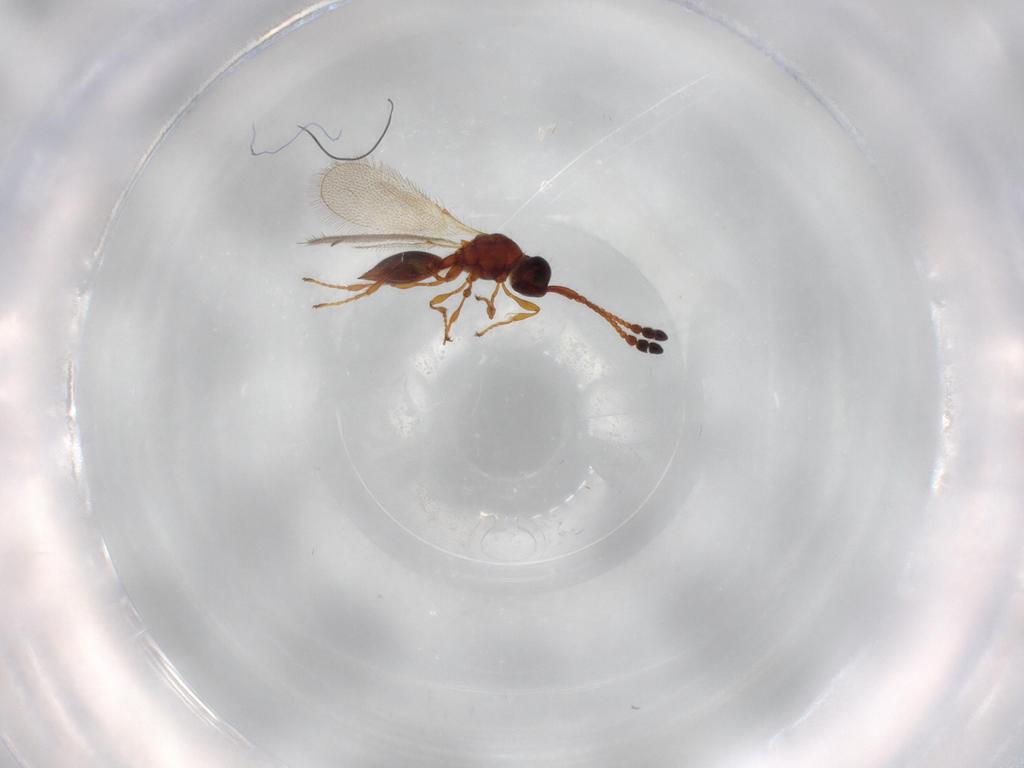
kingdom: Animalia
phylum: Arthropoda
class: Insecta
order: Hymenoptera
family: Diapriidae
